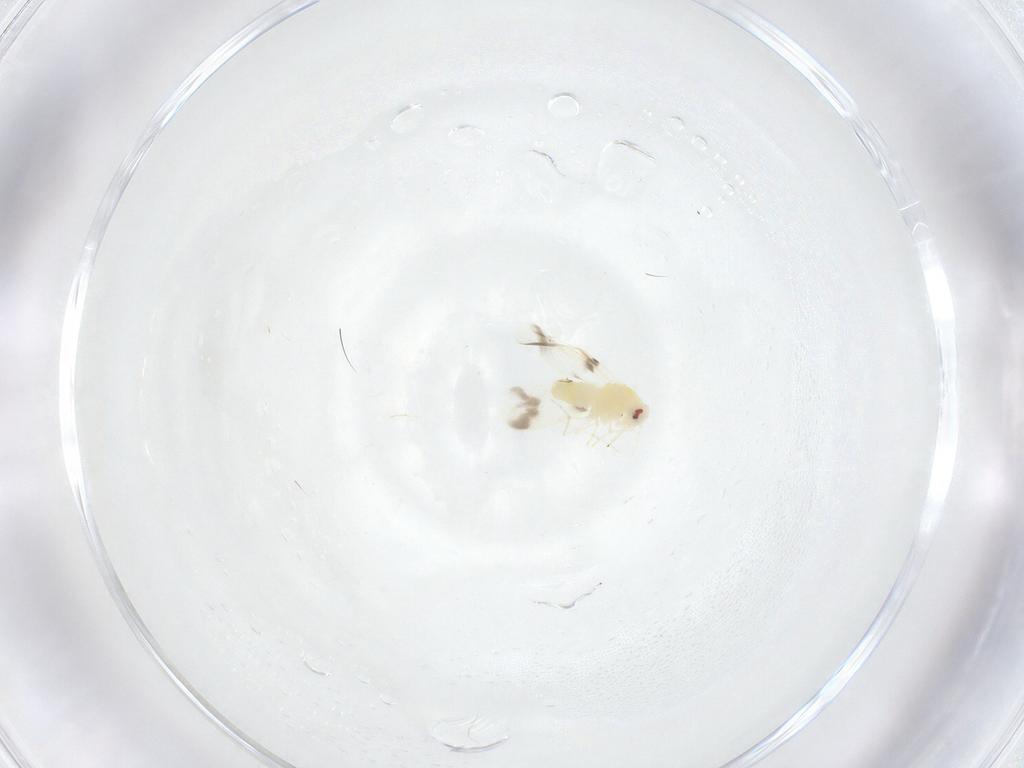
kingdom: Animalia
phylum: Arthropoda
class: Insecta
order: Hemiptera
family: Aleyrodidae
